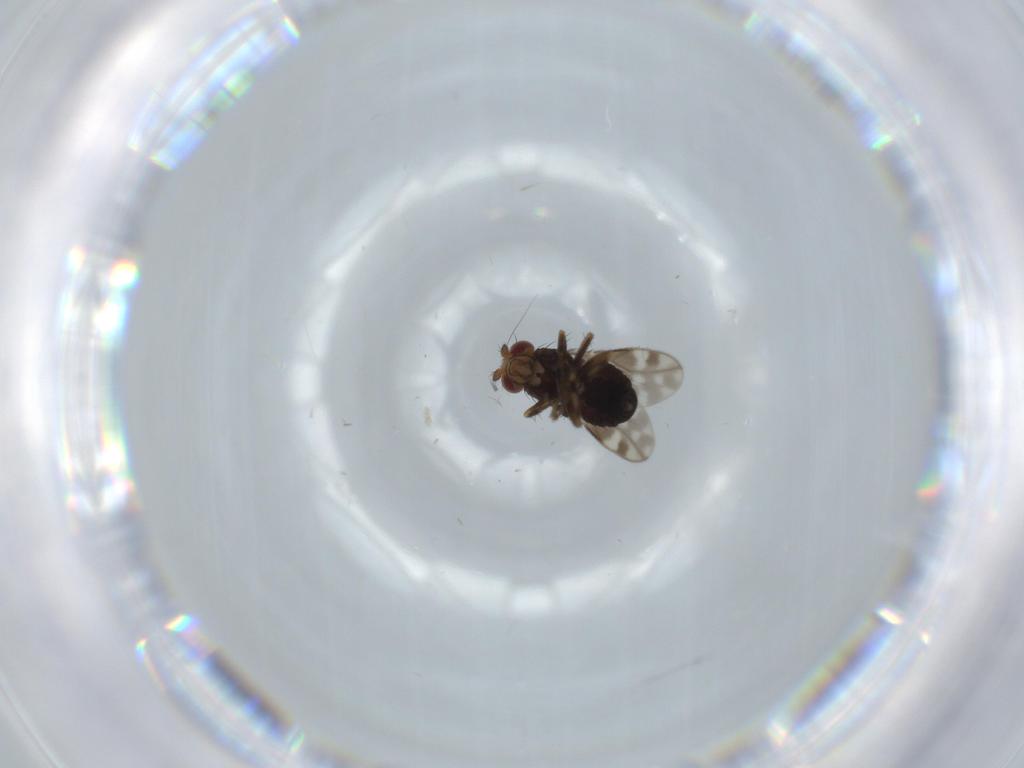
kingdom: Animalia
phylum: Arthropoda
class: Insecta
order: Diptera
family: Sphaeroceridae
